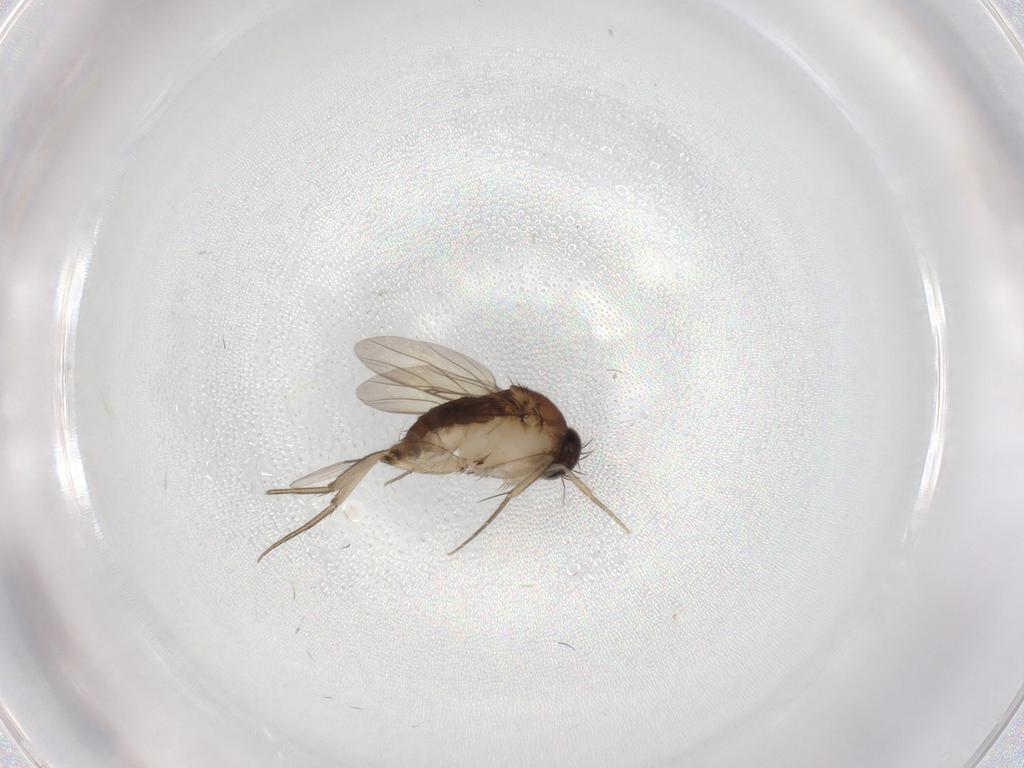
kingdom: Animalia
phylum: Arthropoda
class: Insecta
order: Diptera
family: Phoridae
